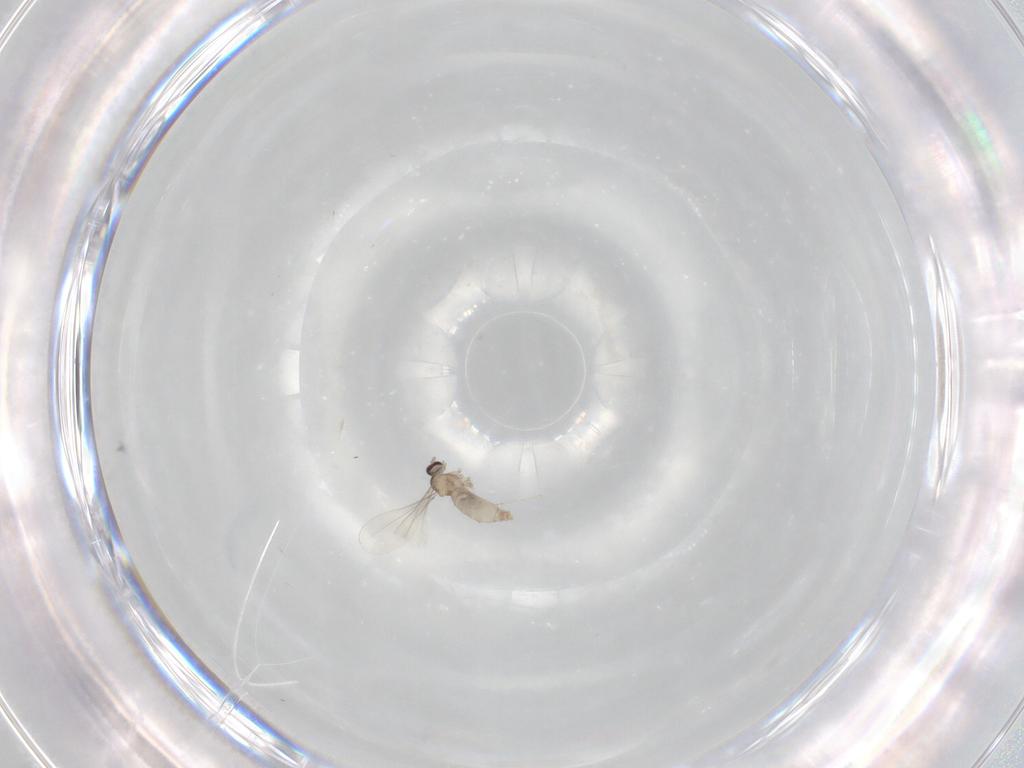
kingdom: Animalia
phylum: Arthropoda
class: Insecta
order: Diptera
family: Cecidomyiidae
